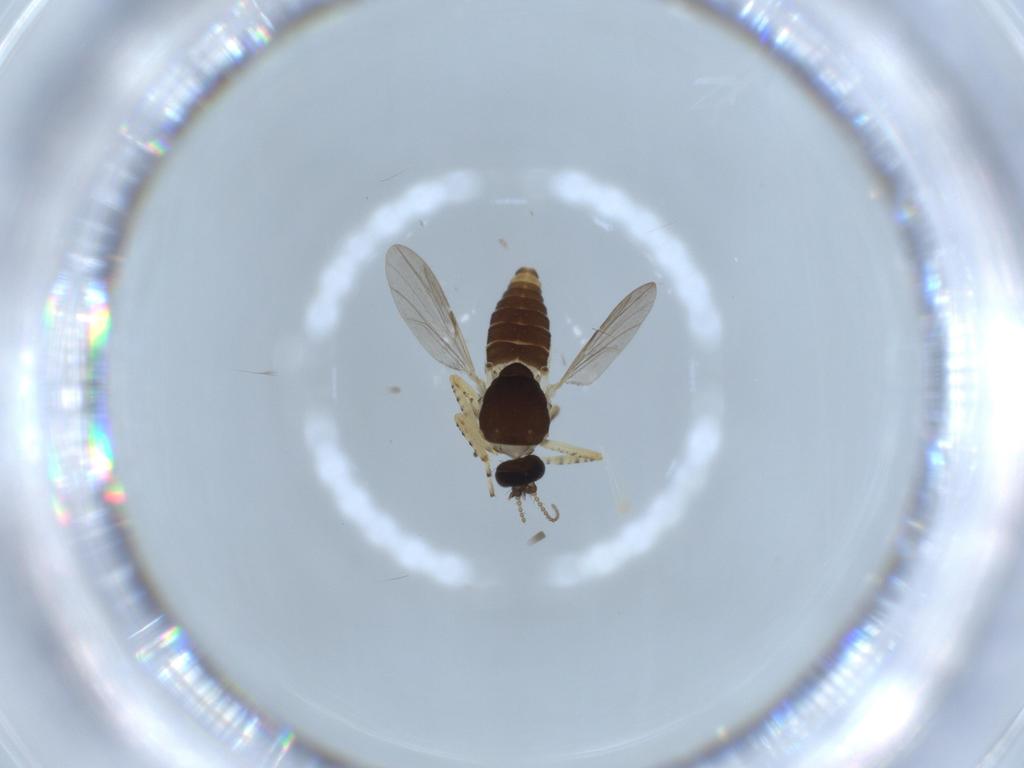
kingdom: Animalia
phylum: Arthropoda
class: Insecta
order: Diptera
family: Ceratopogonidae
